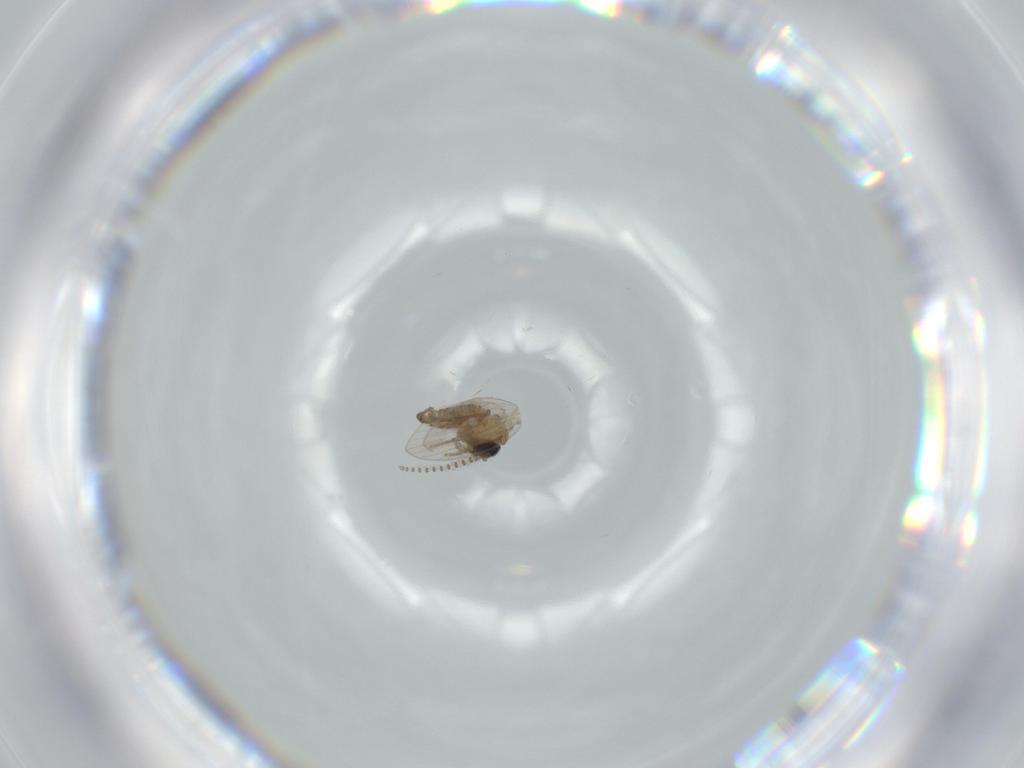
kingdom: Animalia
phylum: Arthropoda
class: Insecta
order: Diptera
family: Psychodidae
